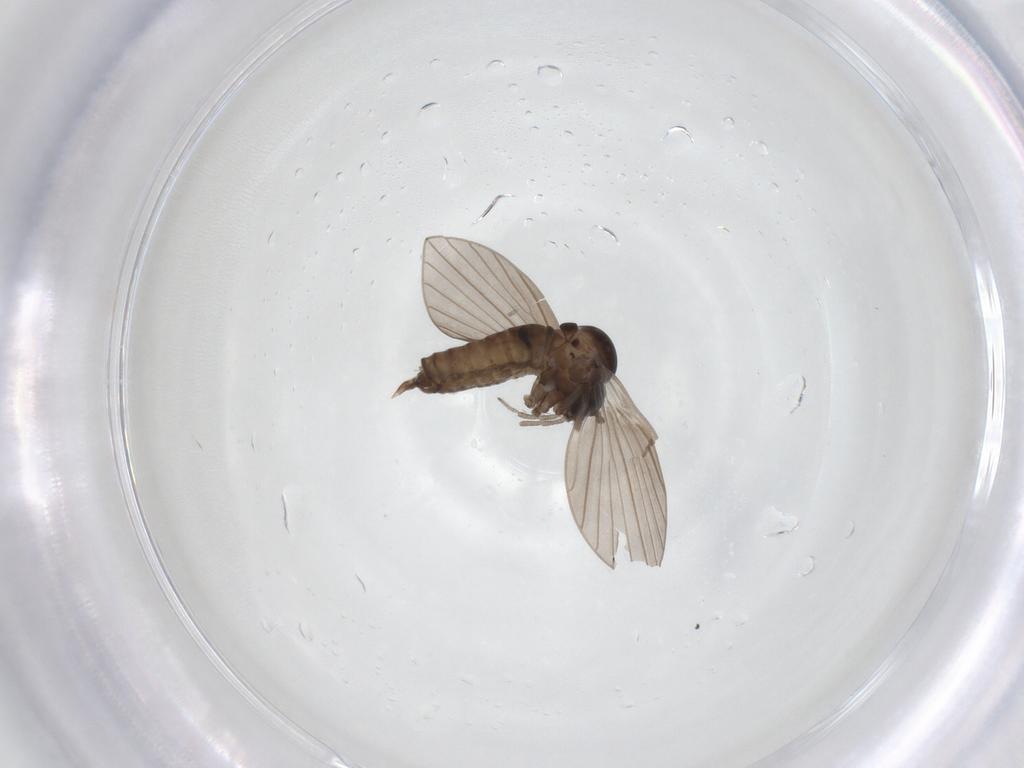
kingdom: Animalia
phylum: Arthropoda
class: Insecta
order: Diptera
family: Psychodidae
